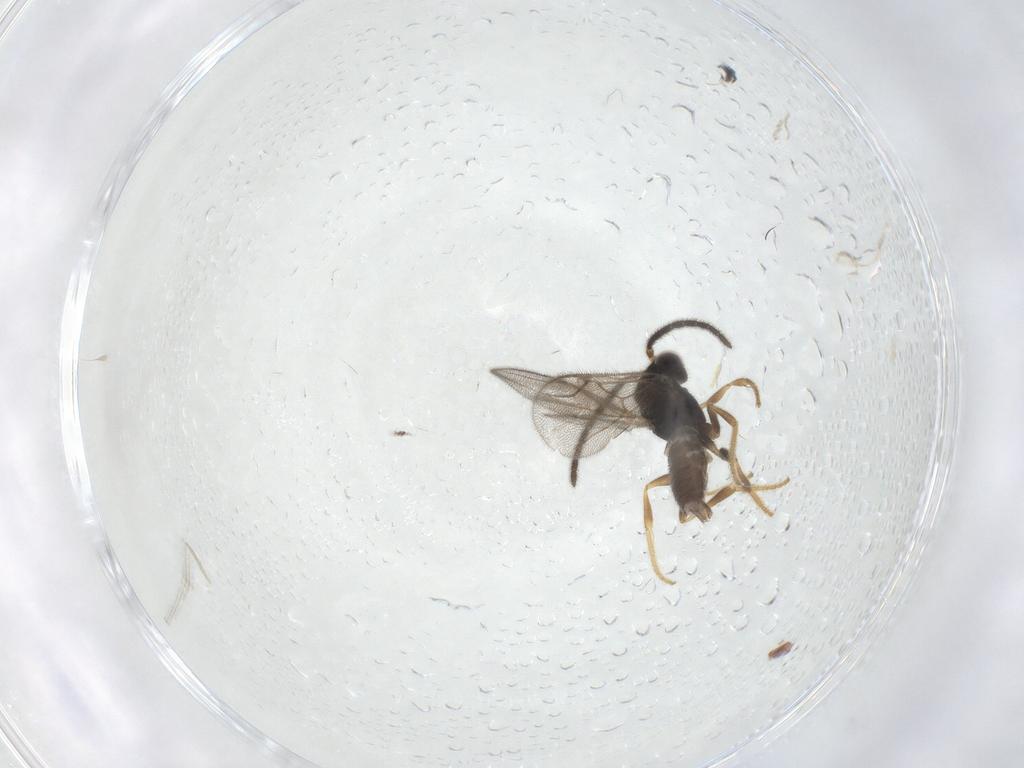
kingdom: Animalia
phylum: Arthropoda
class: Insecta
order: Hymenoptera
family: Dryinidae
